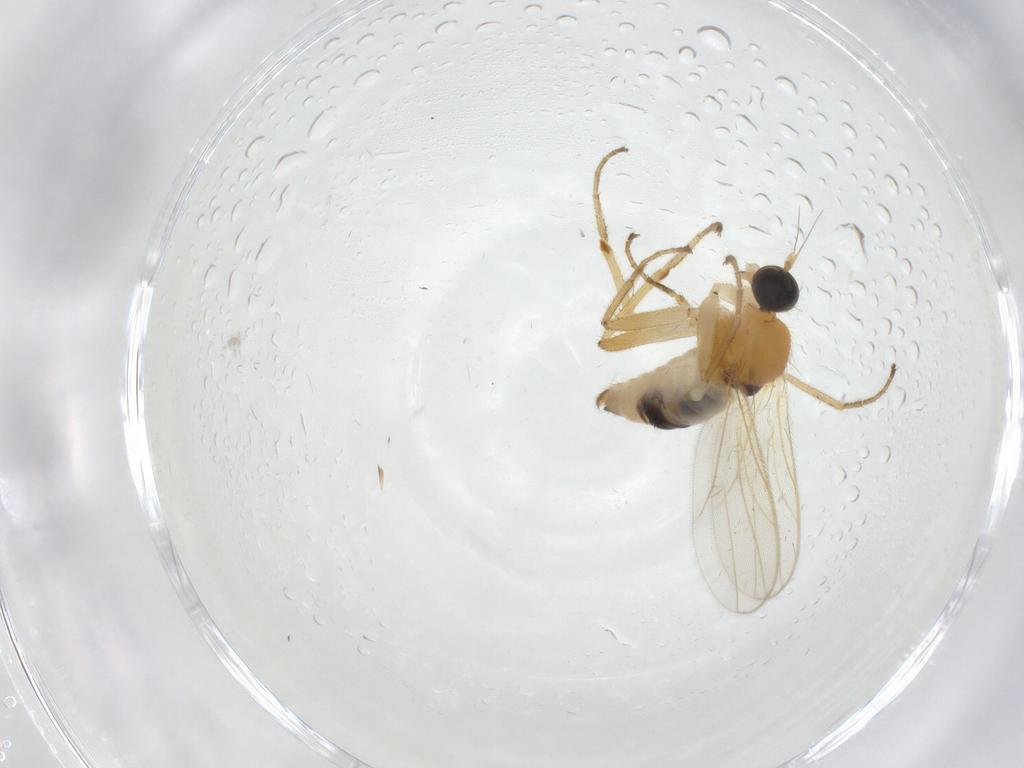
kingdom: Animalia
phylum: Arthropoda
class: Insecta
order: Diptera
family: Hybotidae
